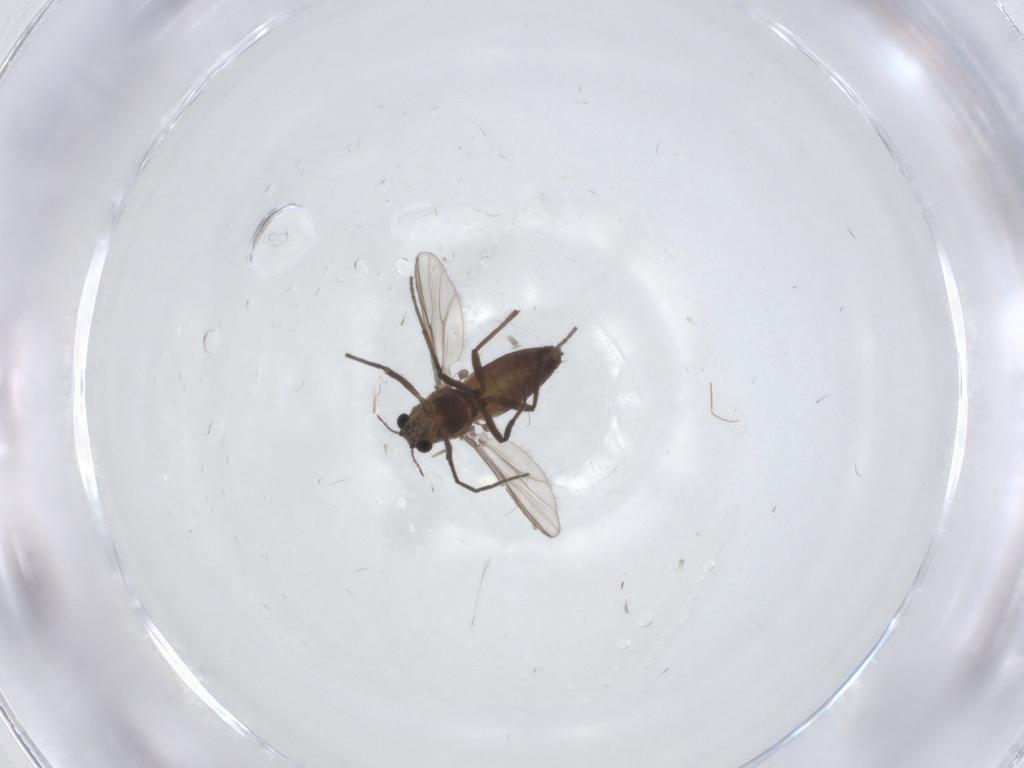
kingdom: Animalia
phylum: Arthropoda
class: Insecta
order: Diptera
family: Chironomidae
